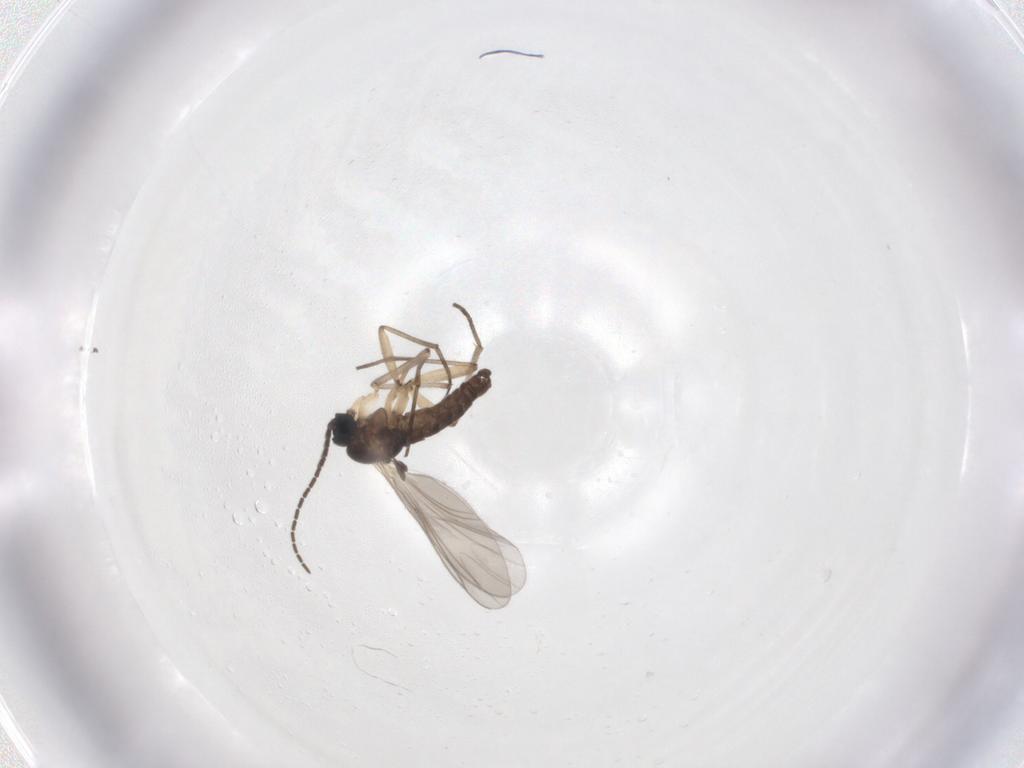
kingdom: Animalia
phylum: Arthropoda
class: Insecta
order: Diptera
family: Sciaridae
